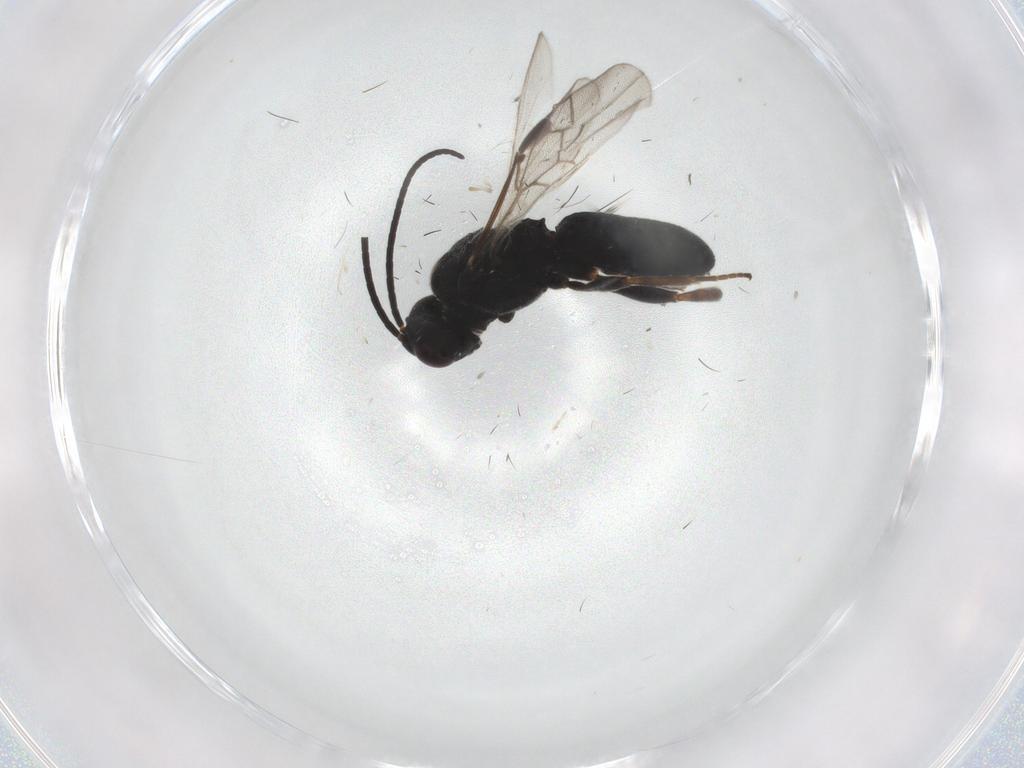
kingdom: Animalia
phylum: Arthropoda
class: Insecta
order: Hymenoptera
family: Braconidae
